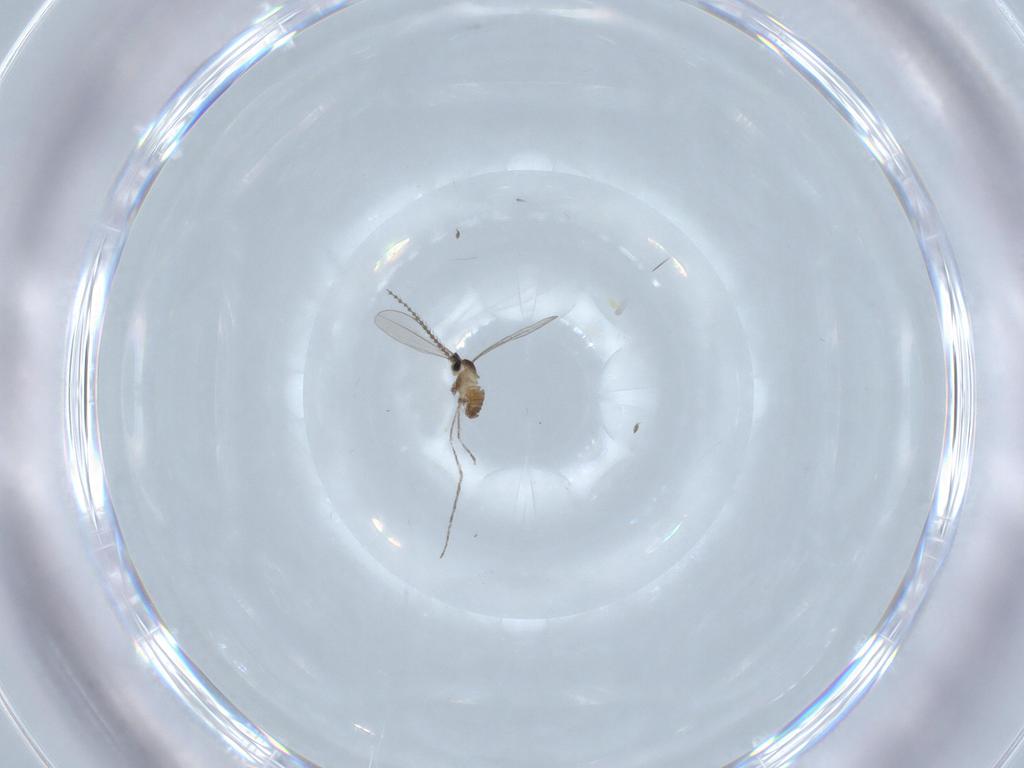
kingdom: Animalia
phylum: Arthropoda
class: Insecta
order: Diptera
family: Cecidomyiidae
